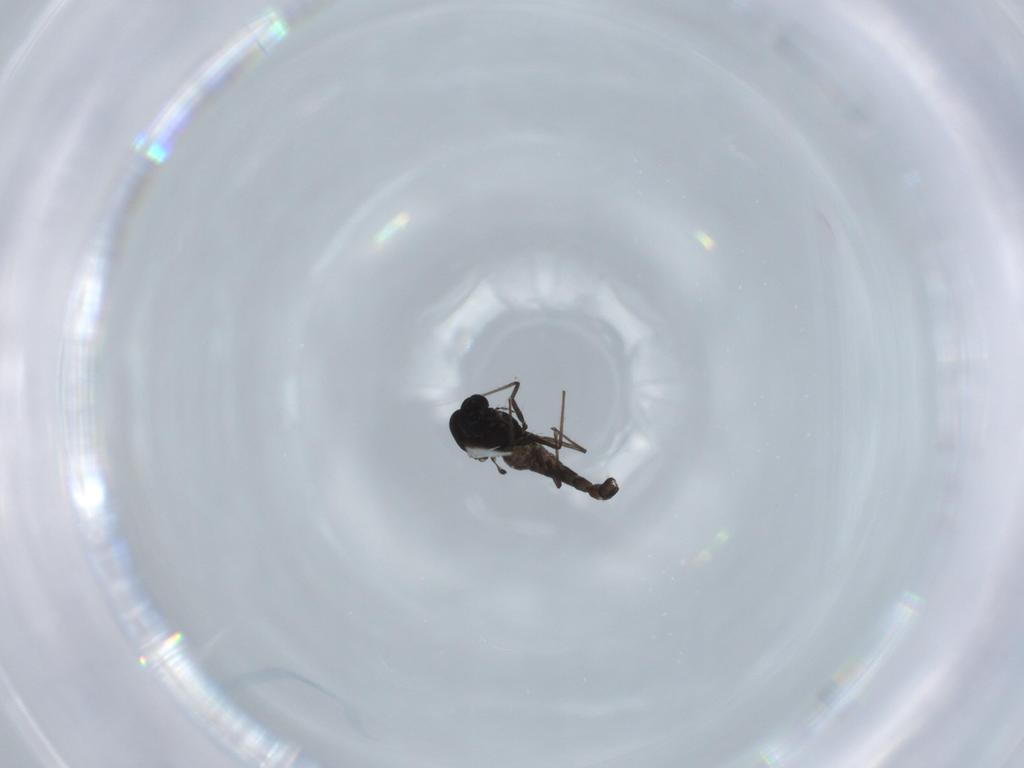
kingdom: Animalia
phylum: Arthropoda
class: Insecta
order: Diptera
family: Chironomidae
